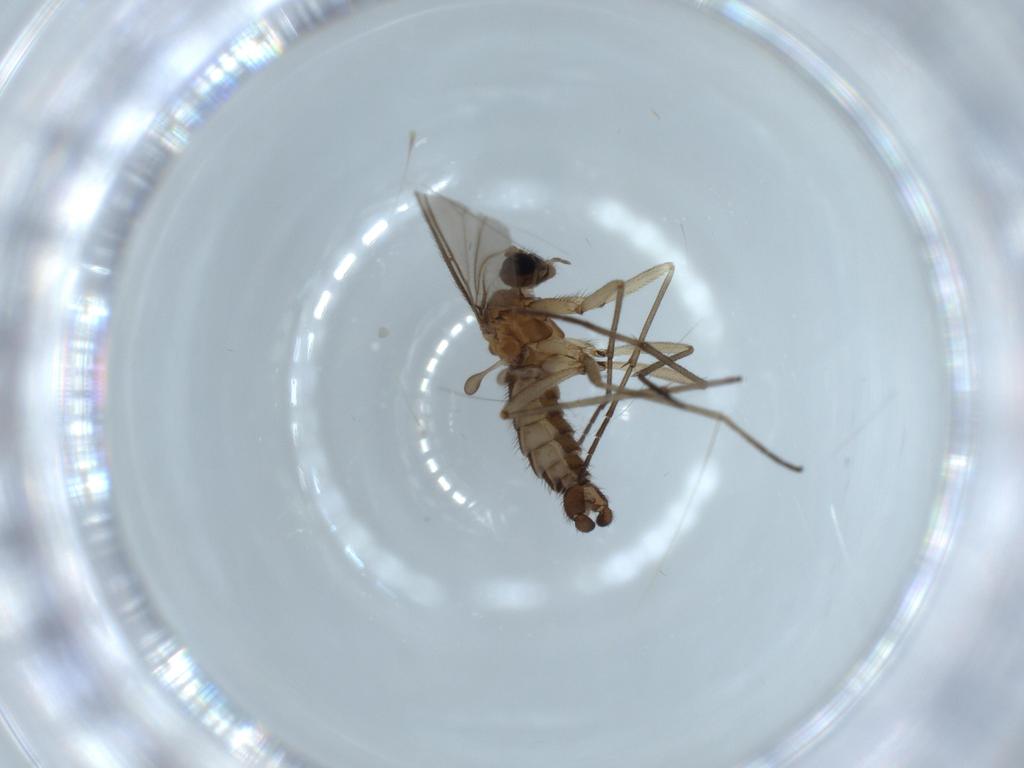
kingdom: Animalia
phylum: Arthropoda
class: Insecta
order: Diptera
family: Sciaridae
